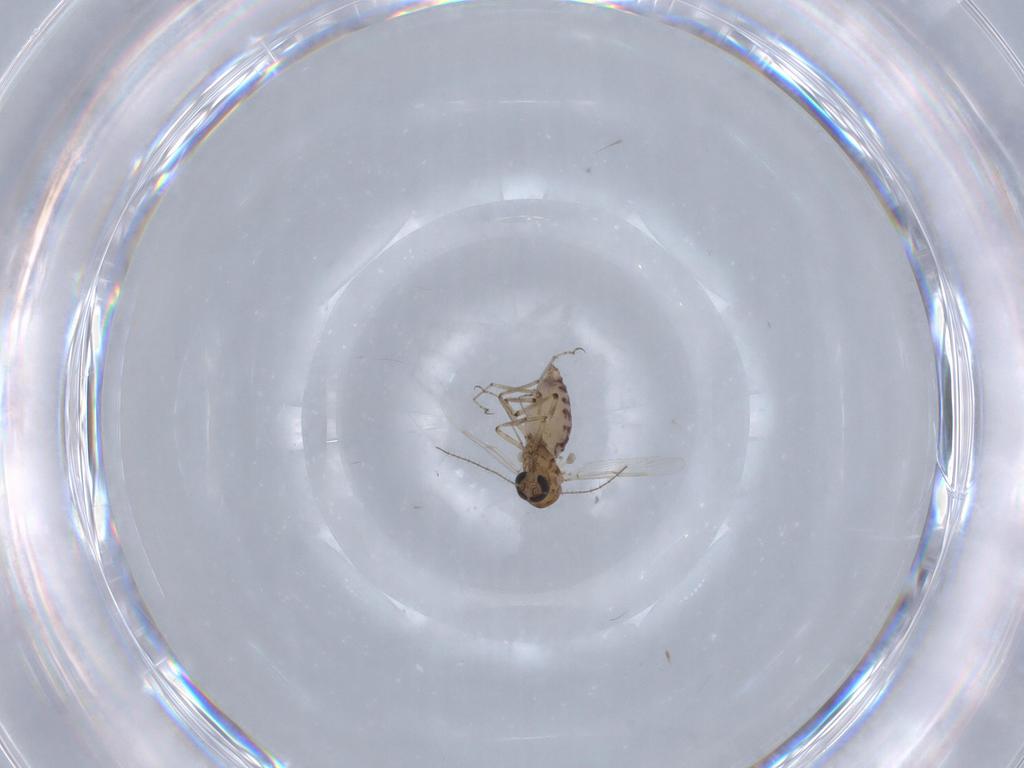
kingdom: Animalia
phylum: Arthropoda
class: Insecta
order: Diptera
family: Ceratopogonidae
